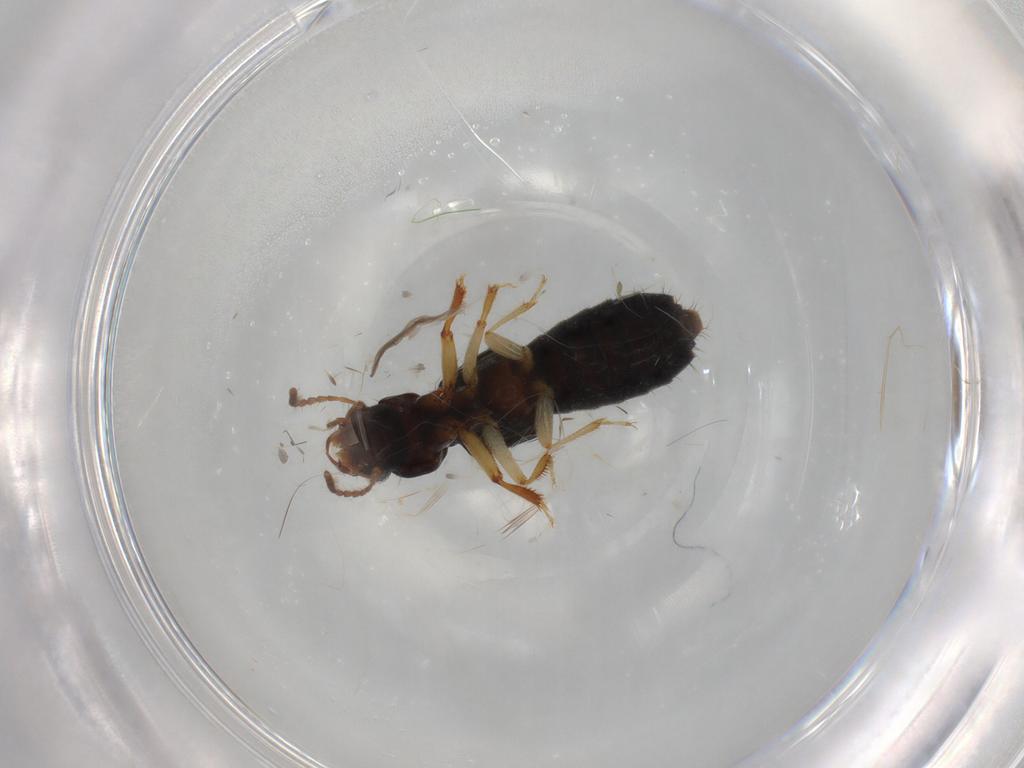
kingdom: Animalia
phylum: Arthropoda
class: Insecta
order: Coleoptera
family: Staphylinidae
